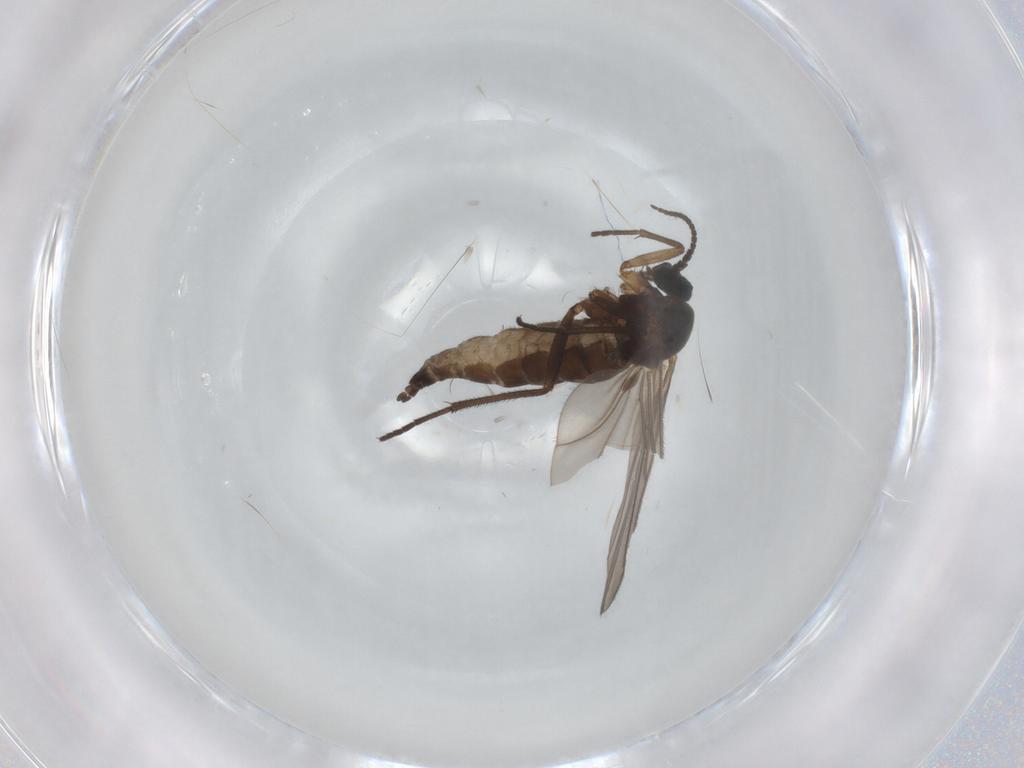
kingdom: Animalia
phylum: Arthropoda
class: Insecta
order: Diptera
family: Sciaridae
